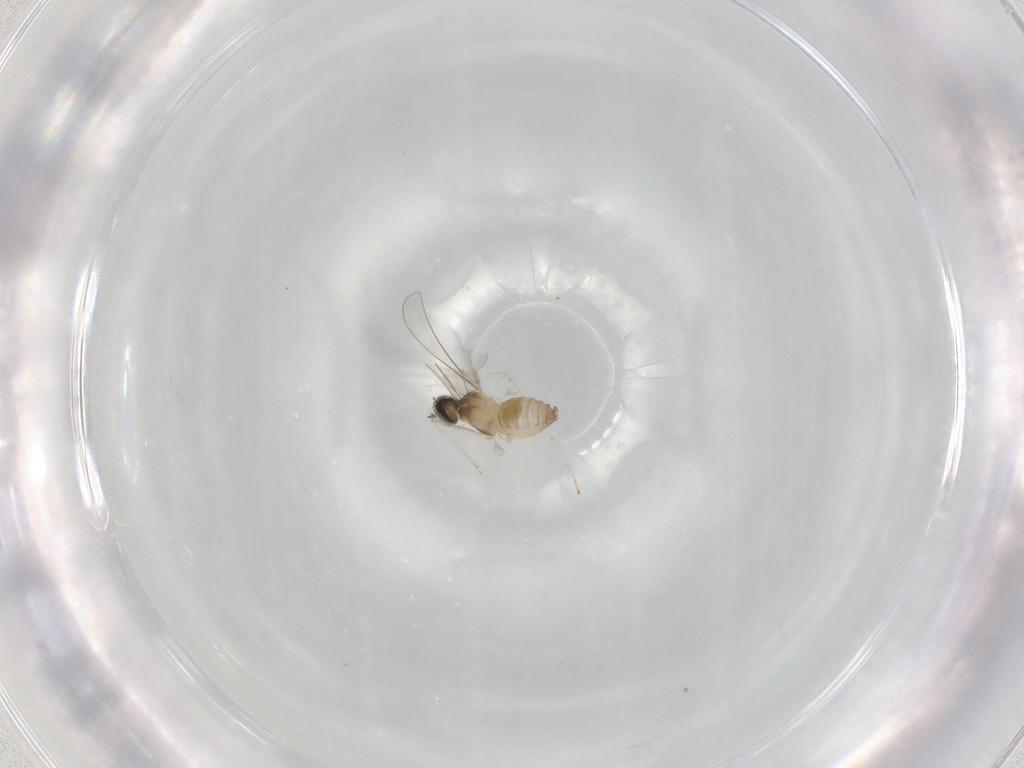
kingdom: Animalia
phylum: Arthropoda
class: Insecta
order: Diptera
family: Cecidomyiidae
